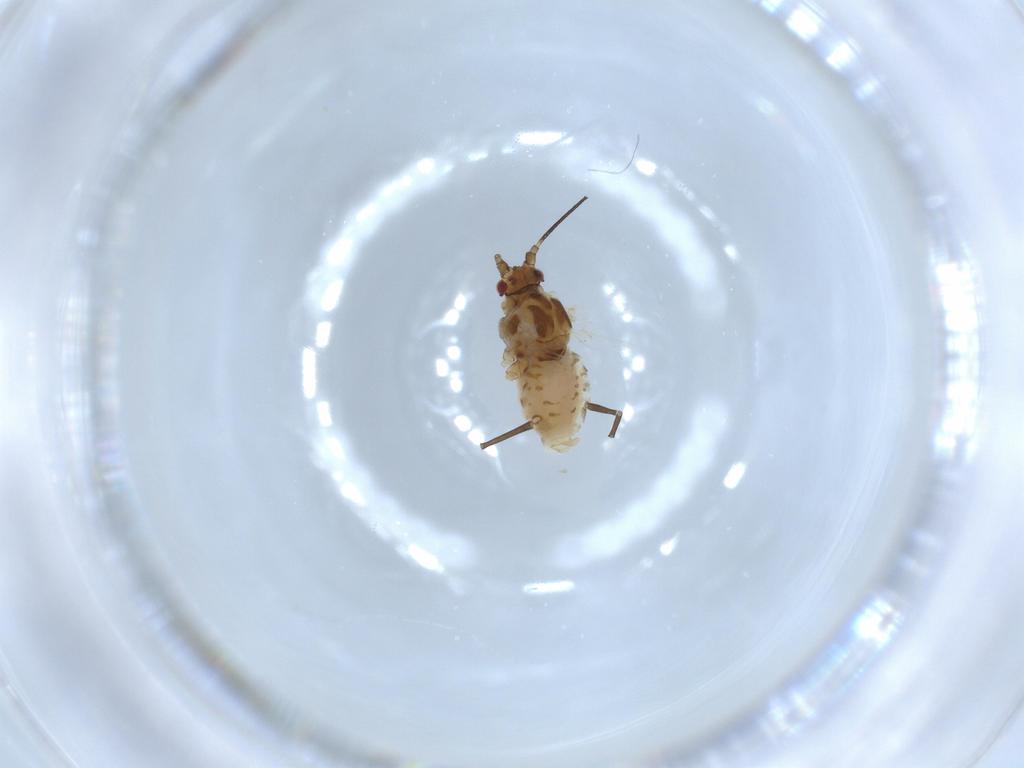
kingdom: Animalia
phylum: Arthropoda
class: Insecta
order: Hemiptera
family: Aphididae
